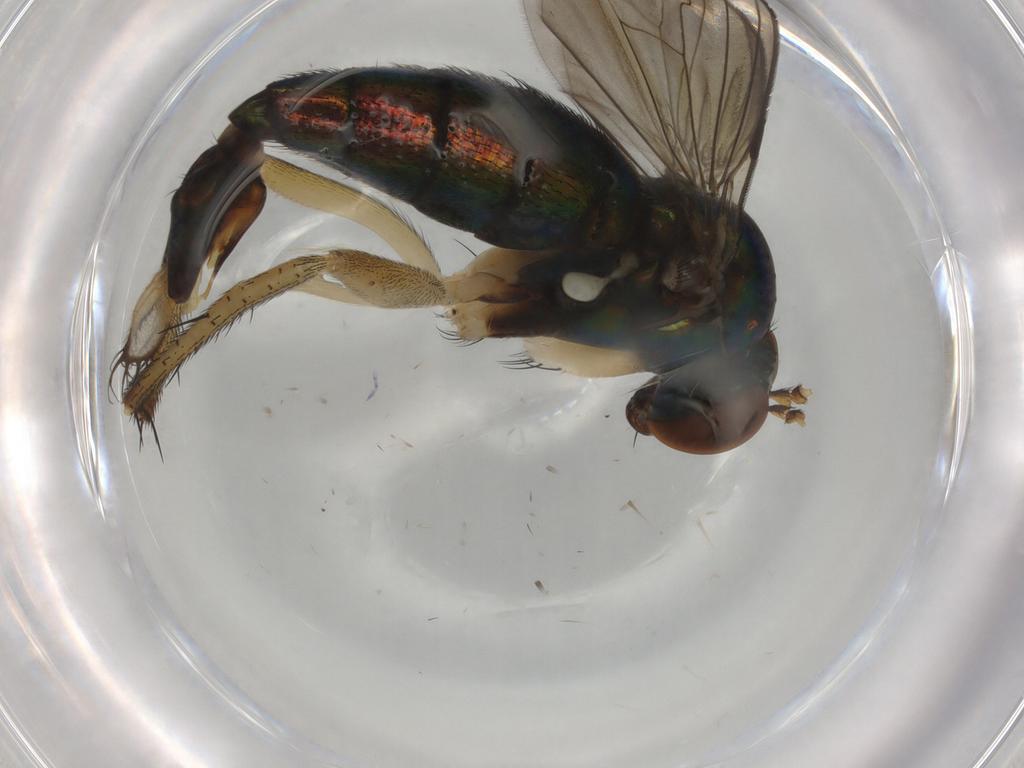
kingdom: Animalia
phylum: Arthropoda
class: Insecta
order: Diptera
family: Dolichopodidae
